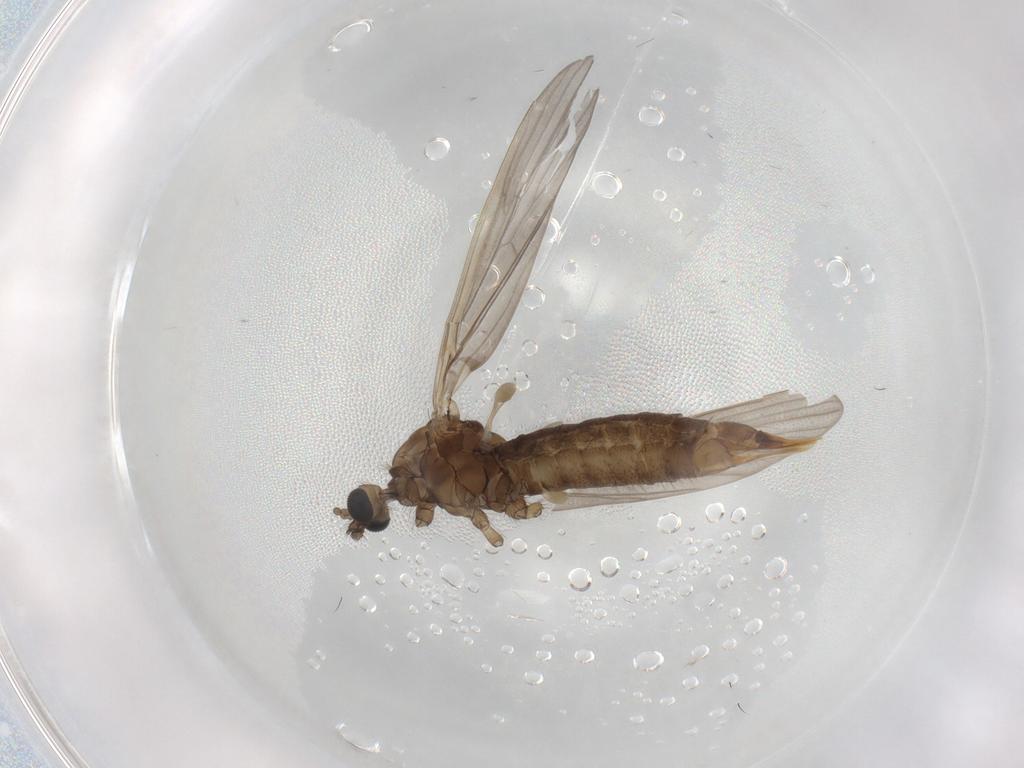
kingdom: Animalia
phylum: Arthropoda
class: Insecta
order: Diptera
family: Limoniidae
